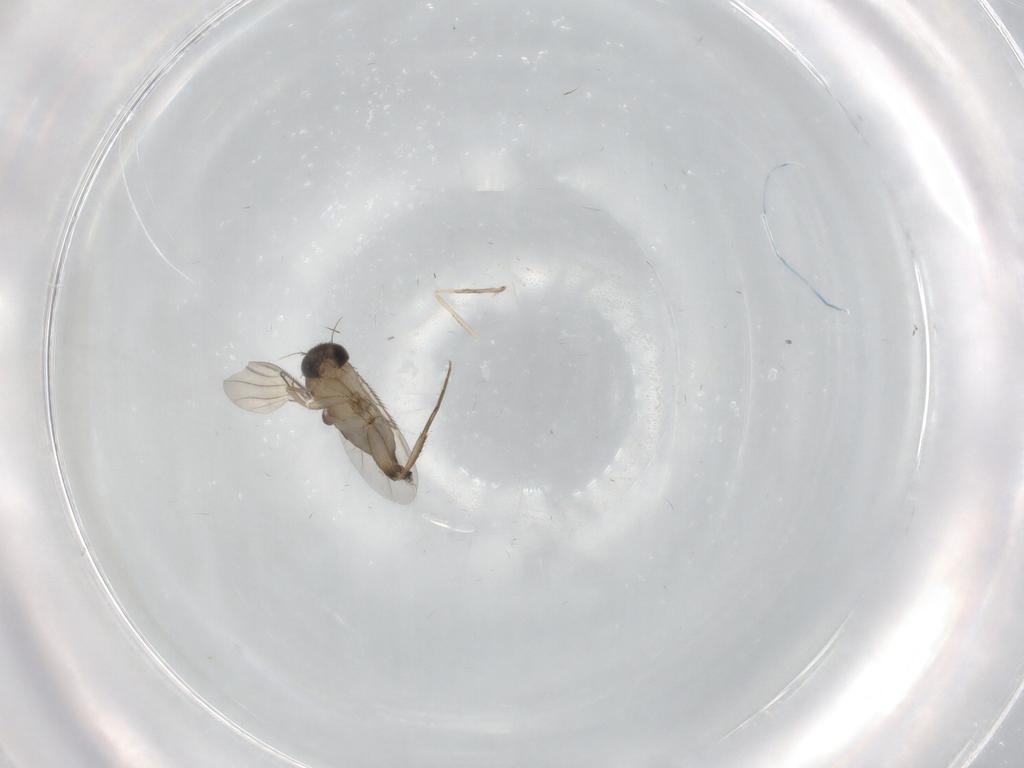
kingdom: Animalia
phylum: Arthropoda
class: Insecta
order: Diptera
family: Phoridae
